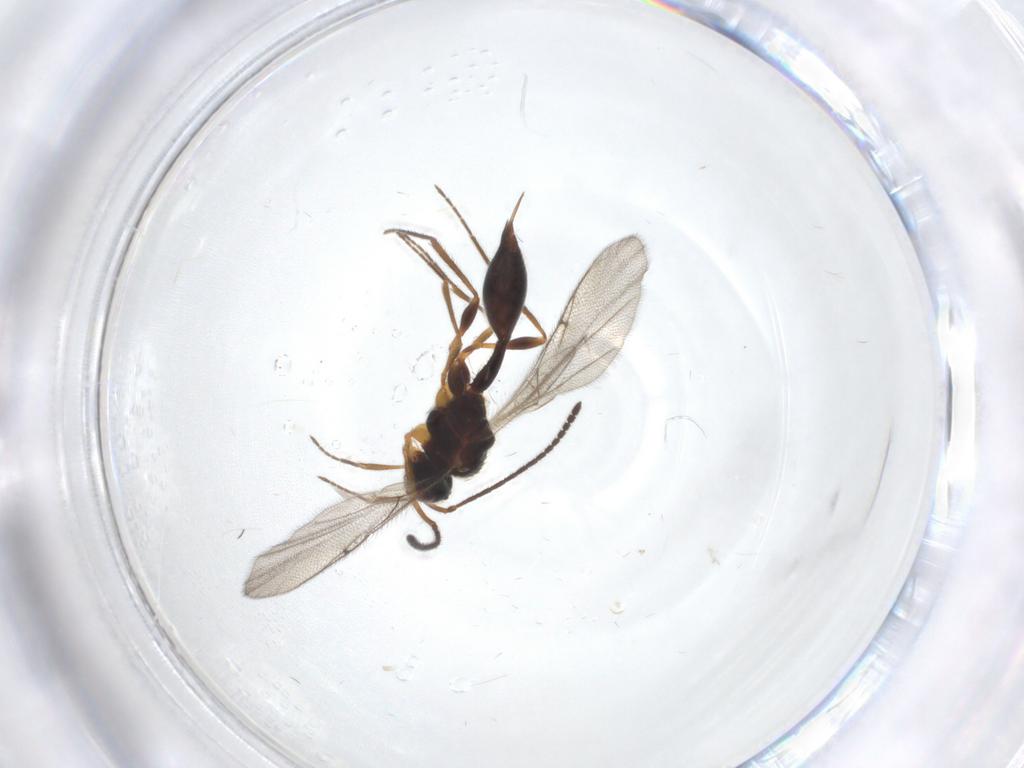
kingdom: Animalia
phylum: Arthropoda
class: Insecta
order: Hymenoptera
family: Diapriidae
